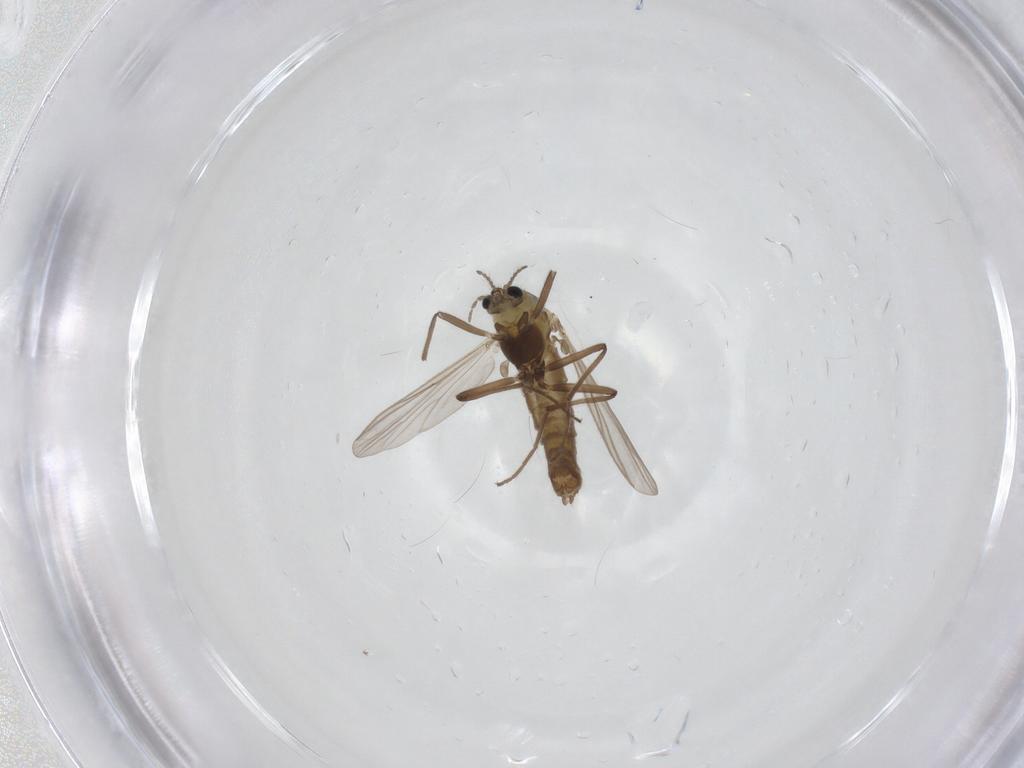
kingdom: Animalia
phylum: Arthropoda
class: Insecta
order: Diptera
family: Chironomidae
